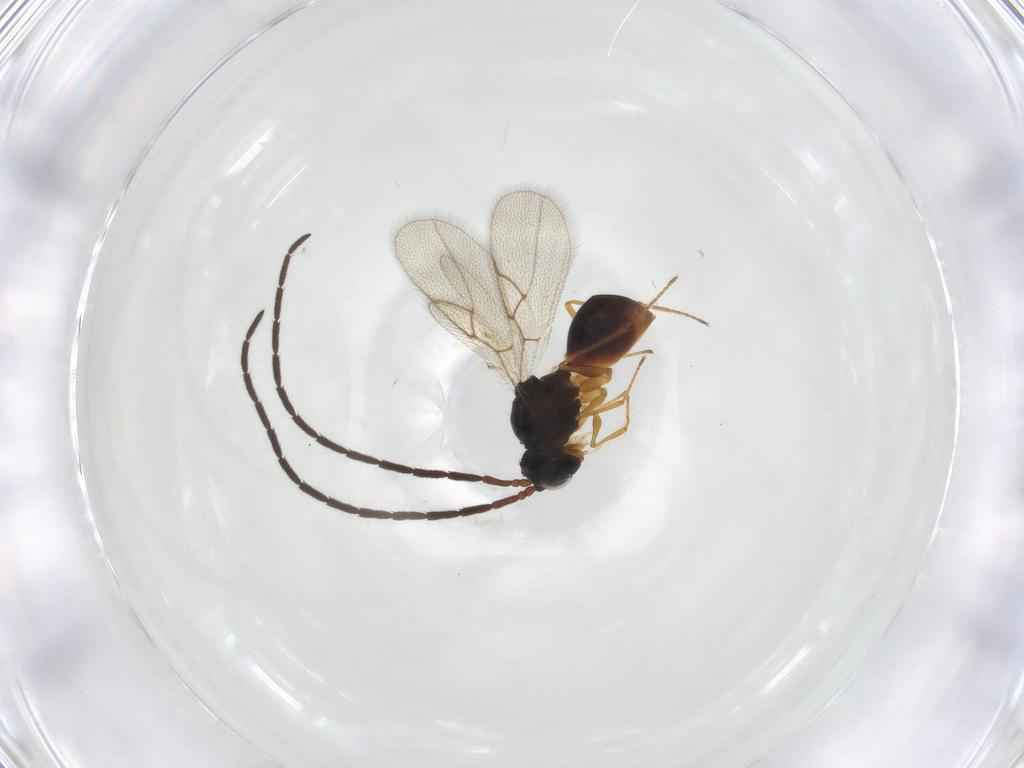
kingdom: Animalia
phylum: Arthropoda
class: Insecta
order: Hymenoptera
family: Scelionidae
